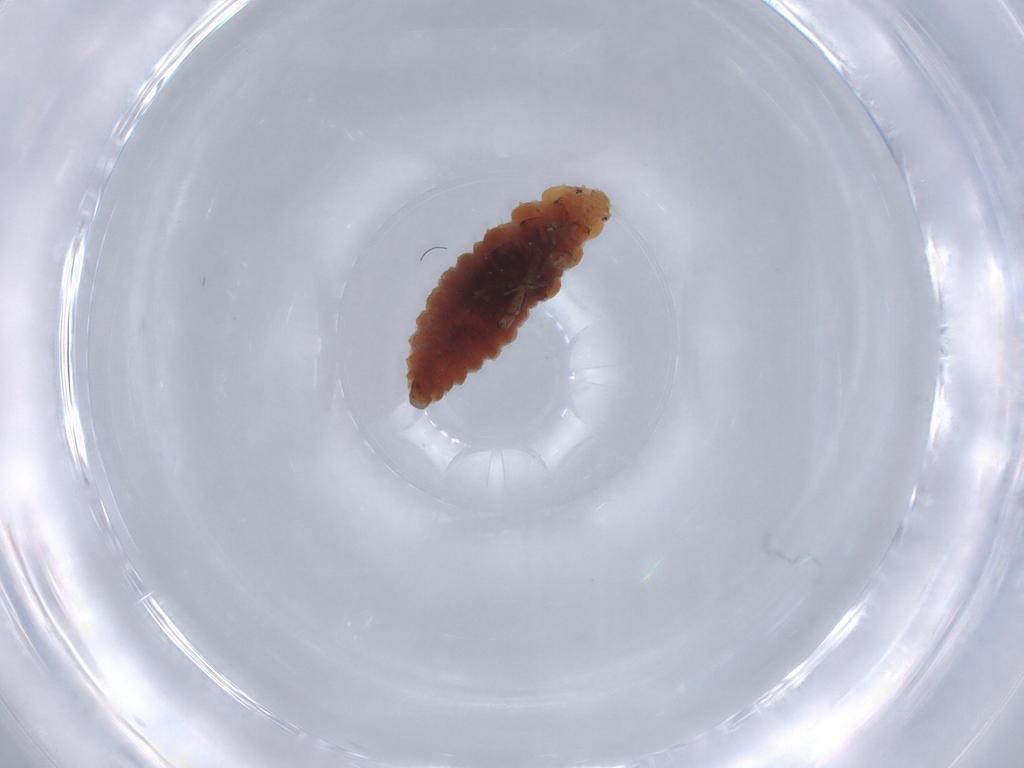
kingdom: Animalia
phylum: Arthropoda
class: Insecta
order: Coleoptera
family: Coccinellidae
